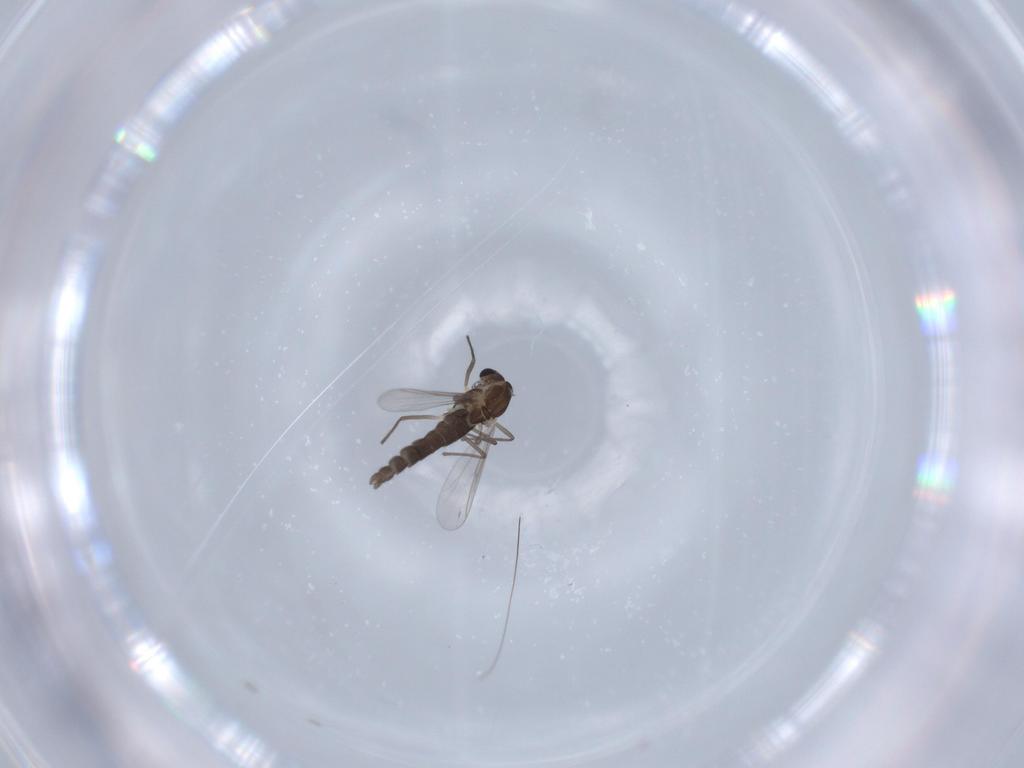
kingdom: Animalia
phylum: Arthropoda
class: Insecta
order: Diptera
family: Chironomidae
